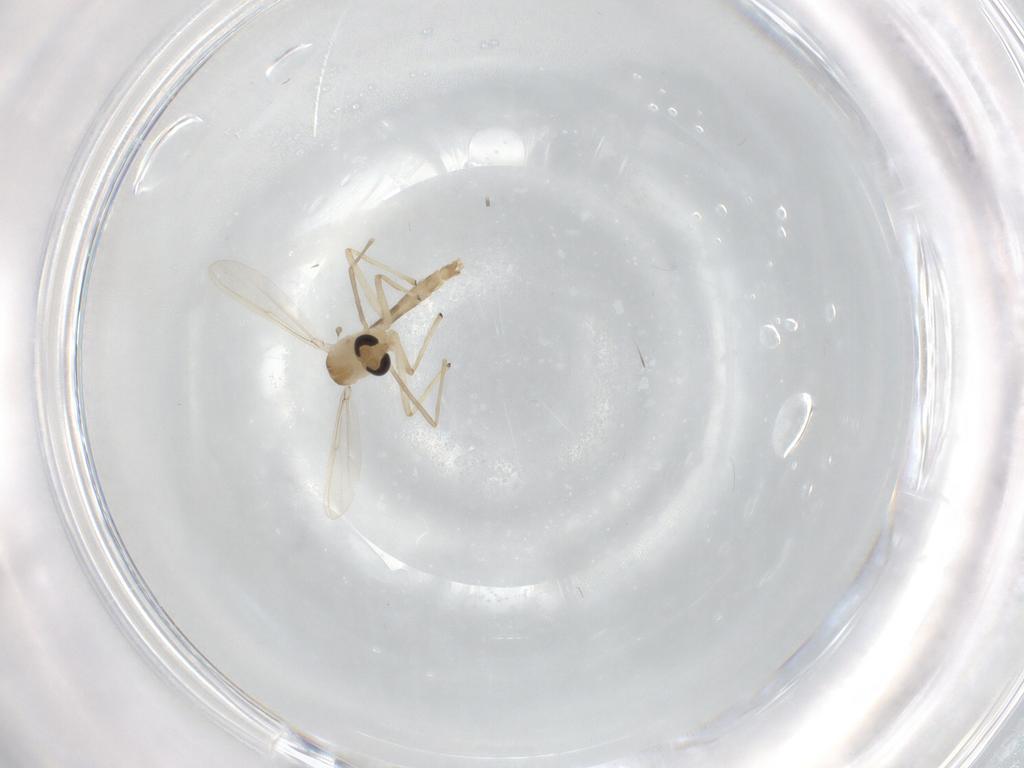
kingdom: Animalia
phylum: Arthropoda
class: Insecta
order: Diptera
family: Chironomidae
